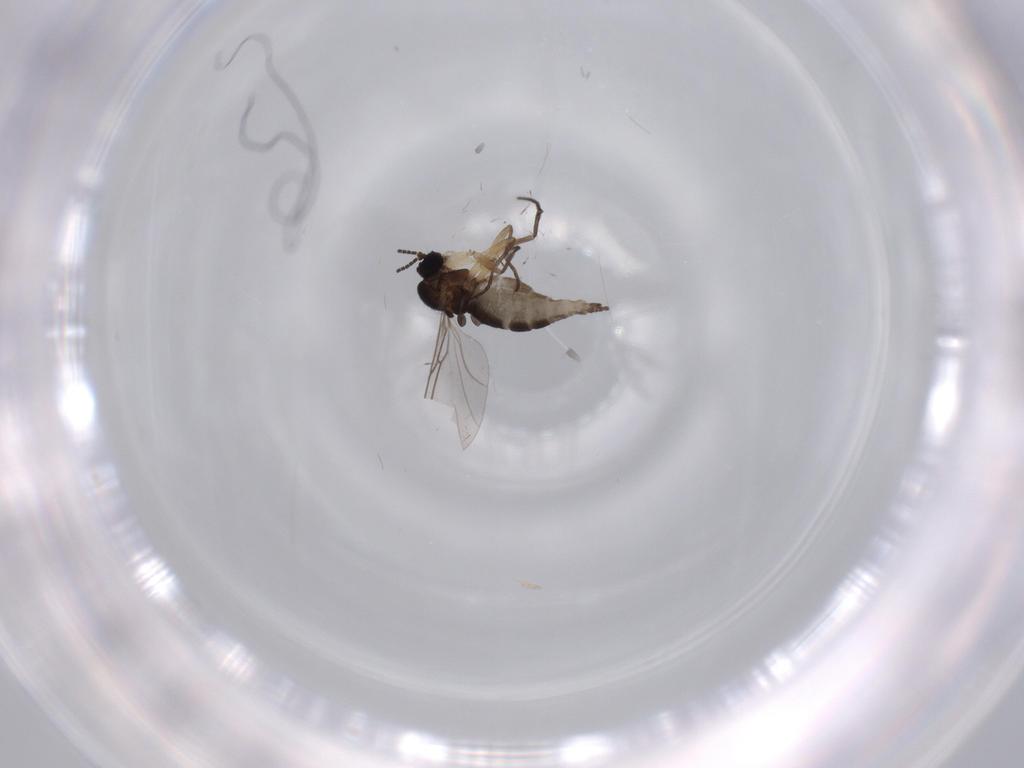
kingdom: Animalia
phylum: Arthropoda
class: Insecta
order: Diptera
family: Sciaridae
